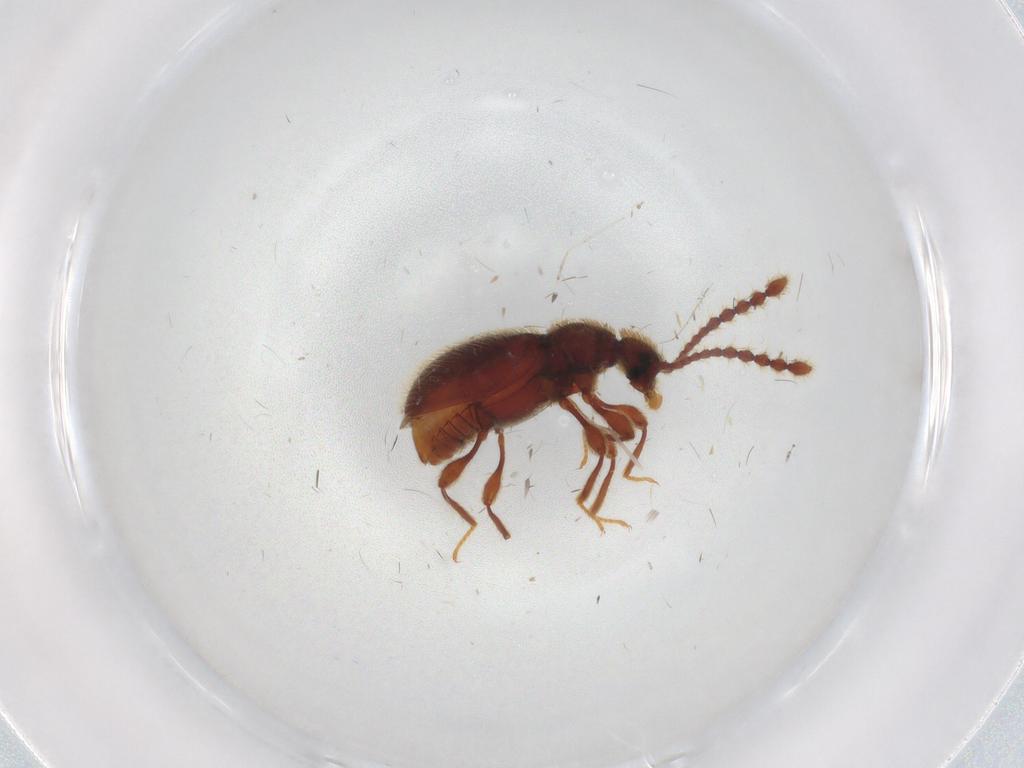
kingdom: Animalia
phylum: Arthropoda
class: Insecta
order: Coleoptera
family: Staphylinidae
